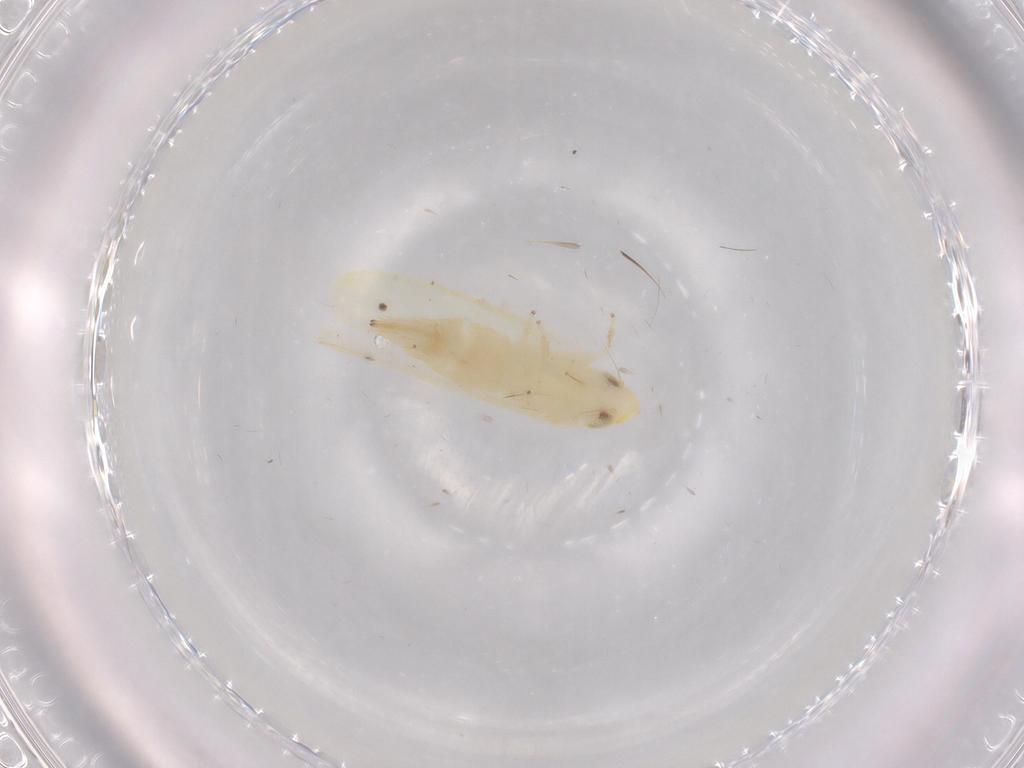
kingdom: Animalia
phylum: Arthropoda
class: Insecta
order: Hemiptera
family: Cicadellidae
